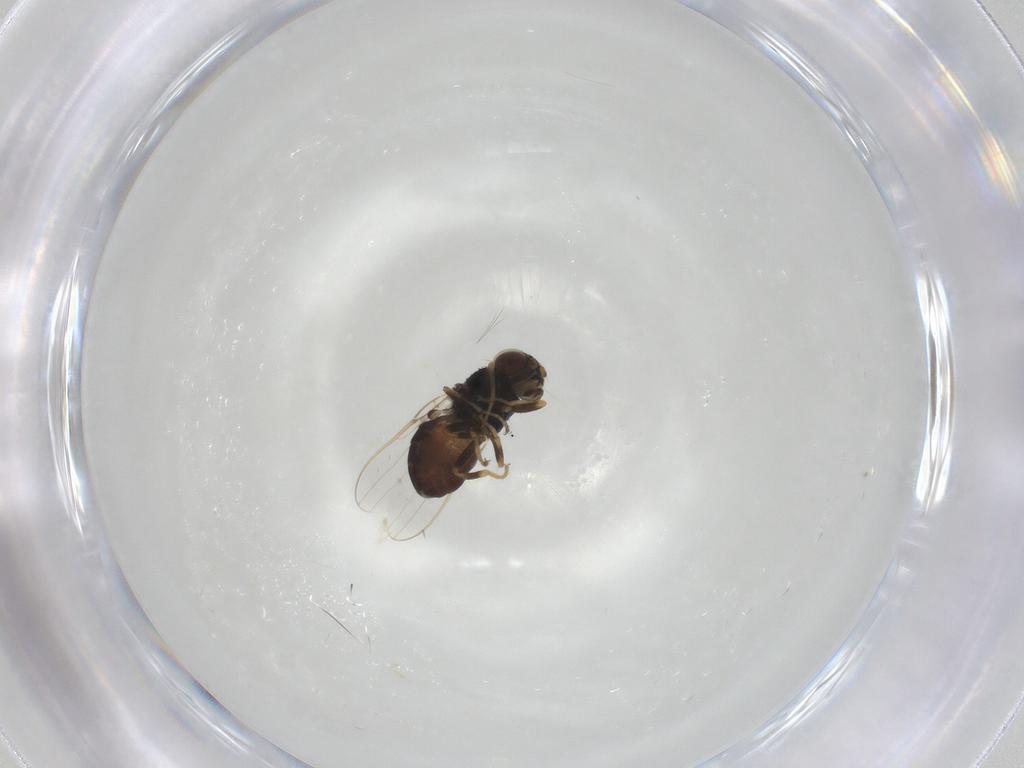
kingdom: Animalia
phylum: Arthropoda
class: Insecta
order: Diptera
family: Chloropidae
